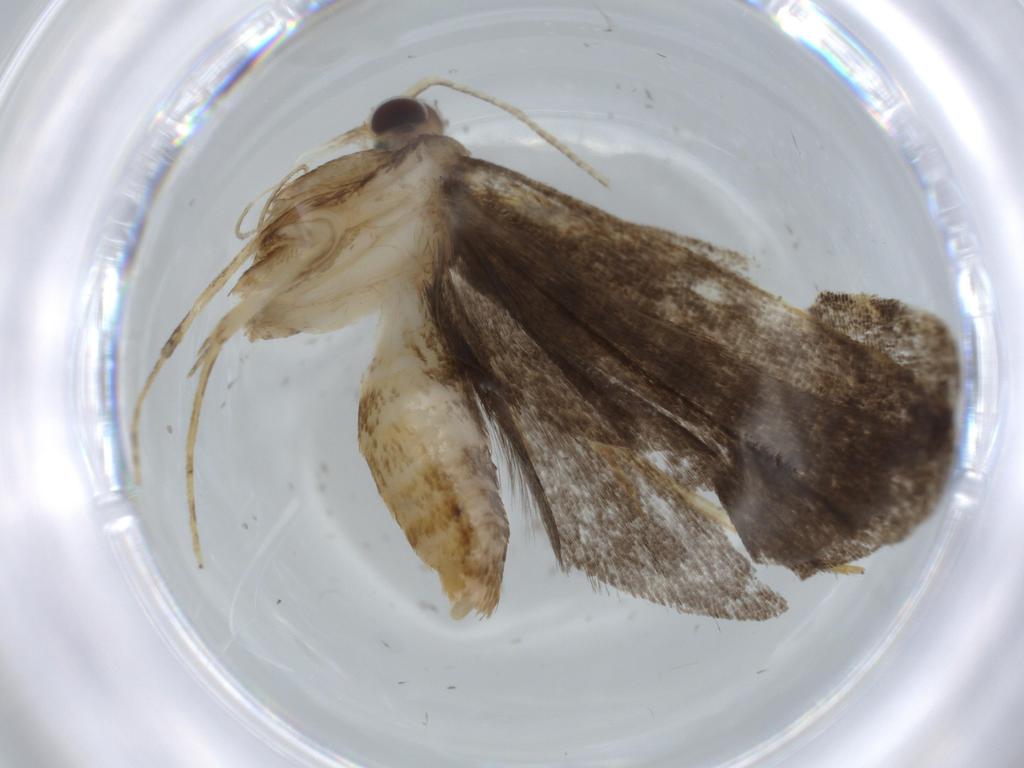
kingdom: Animalia
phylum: Arthropoda
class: Insecta
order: Lepidoptera
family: Autostichidae
